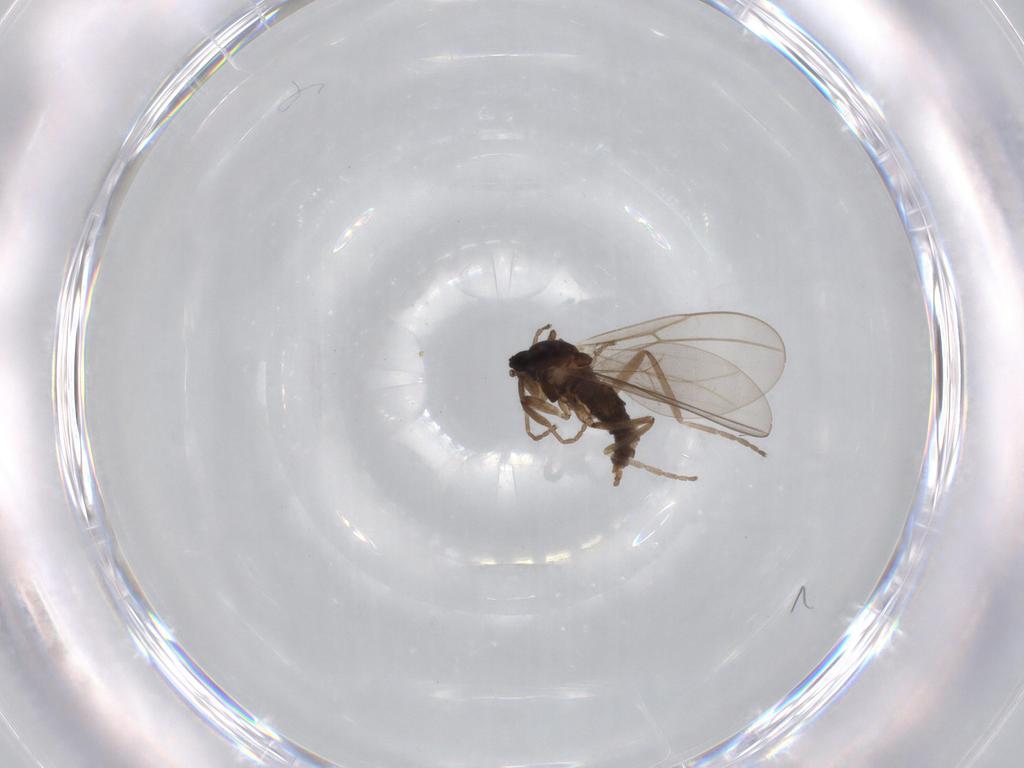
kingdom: Animalia
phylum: Arthropoda
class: Insecta
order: Diptera
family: Cecidomyiidae
